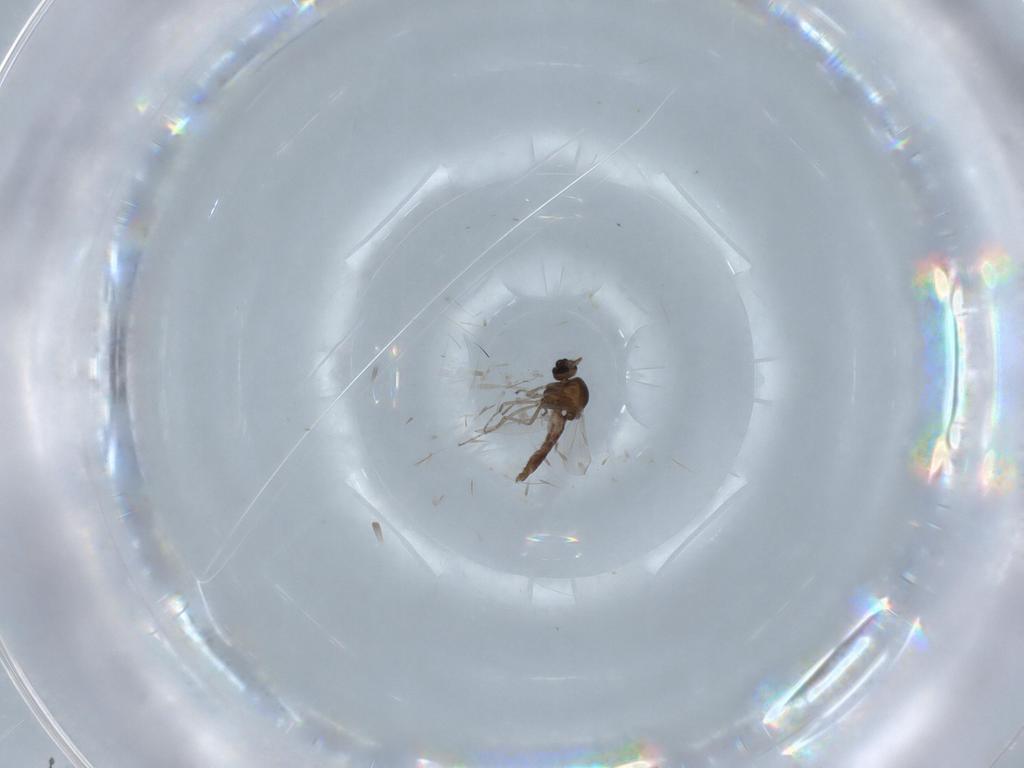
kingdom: Animalia
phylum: Arthropoda
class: Insecta
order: Diptera
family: Ceratopogonidae
